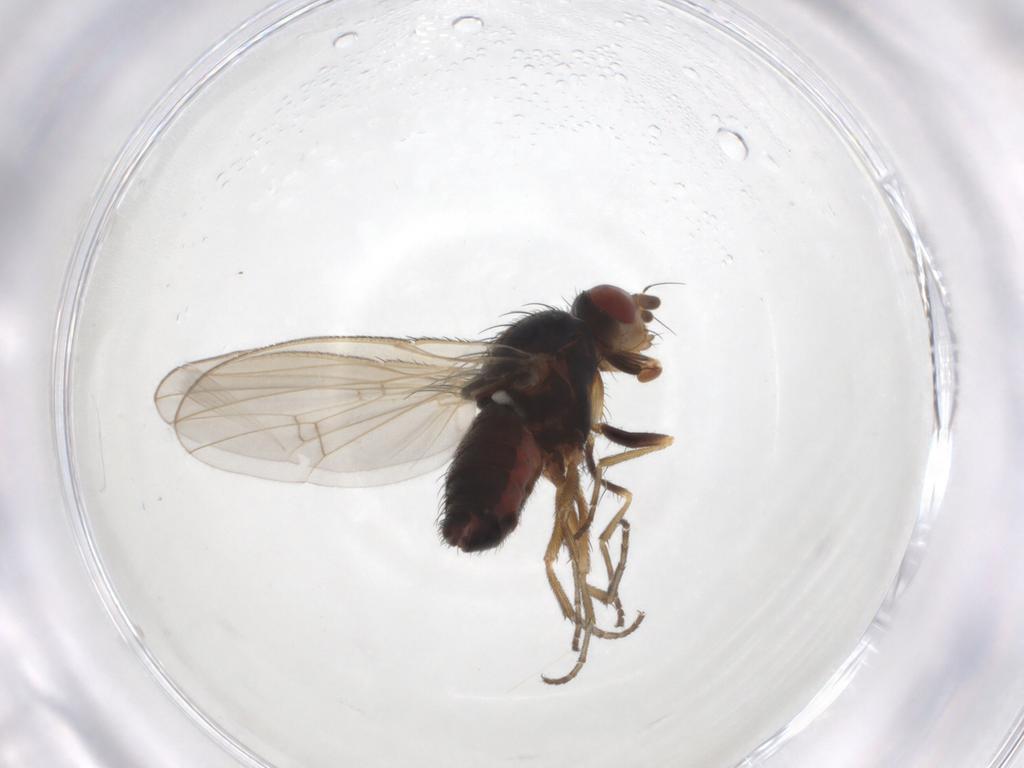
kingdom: Animalia
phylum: Arthropoda
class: Insecta
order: Diptera
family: Heleomyzidae
